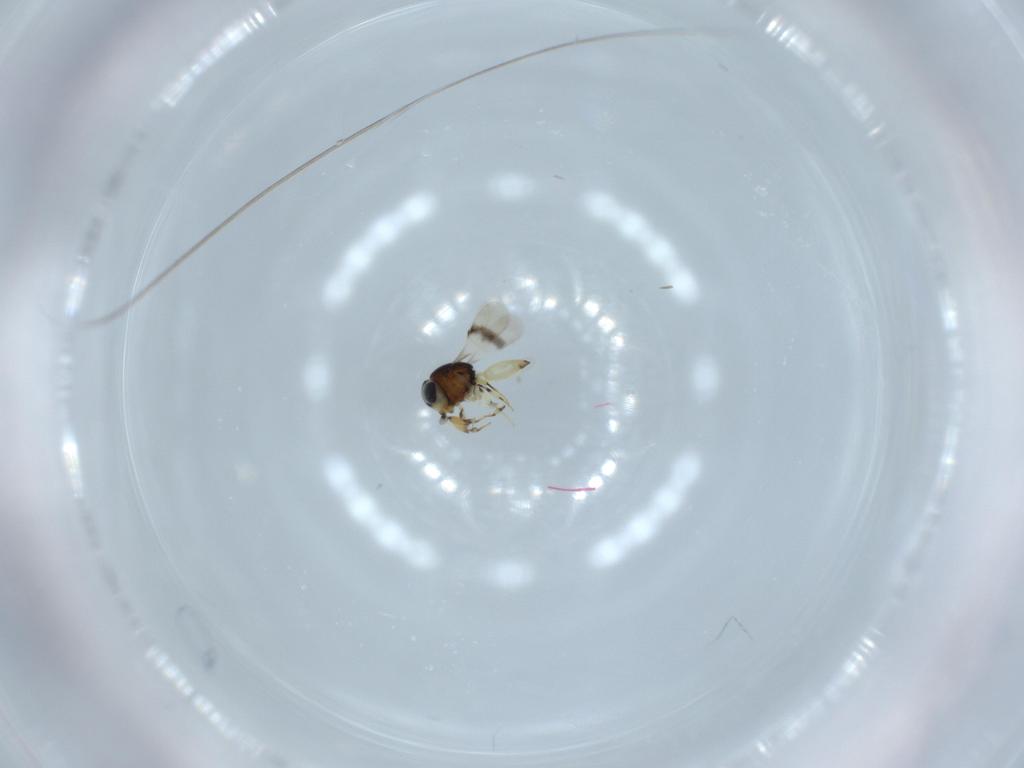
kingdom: Animalia
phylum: Arthropoda
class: Insecta
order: Hymenoptera
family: Scelionidae
